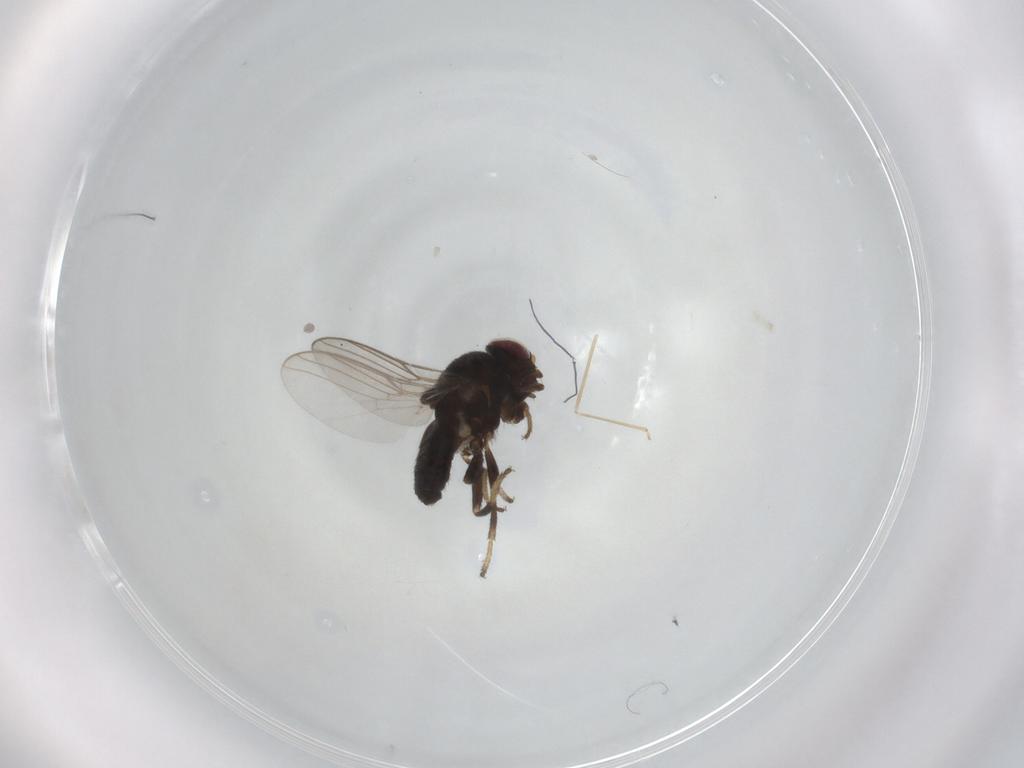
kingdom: Animalia
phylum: Arthropoda
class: Insecta
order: Diptera
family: Chloropidae
